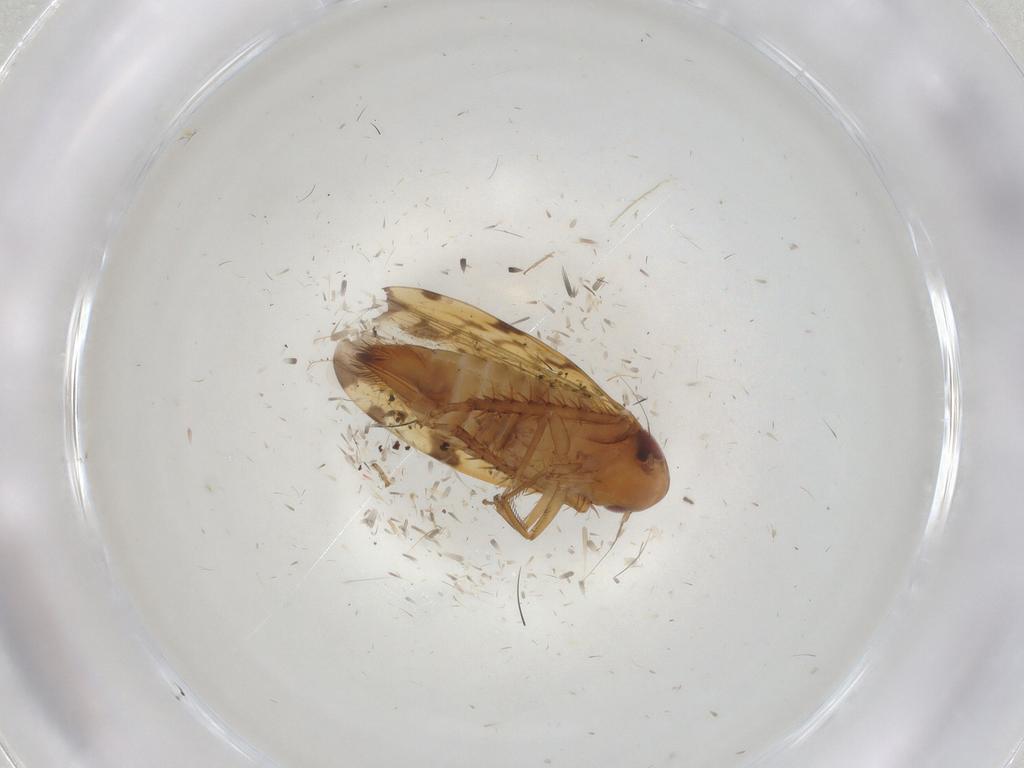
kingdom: Animalia
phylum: Arthropoda
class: Insecta
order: Hemiptera
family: Cicadellidae
